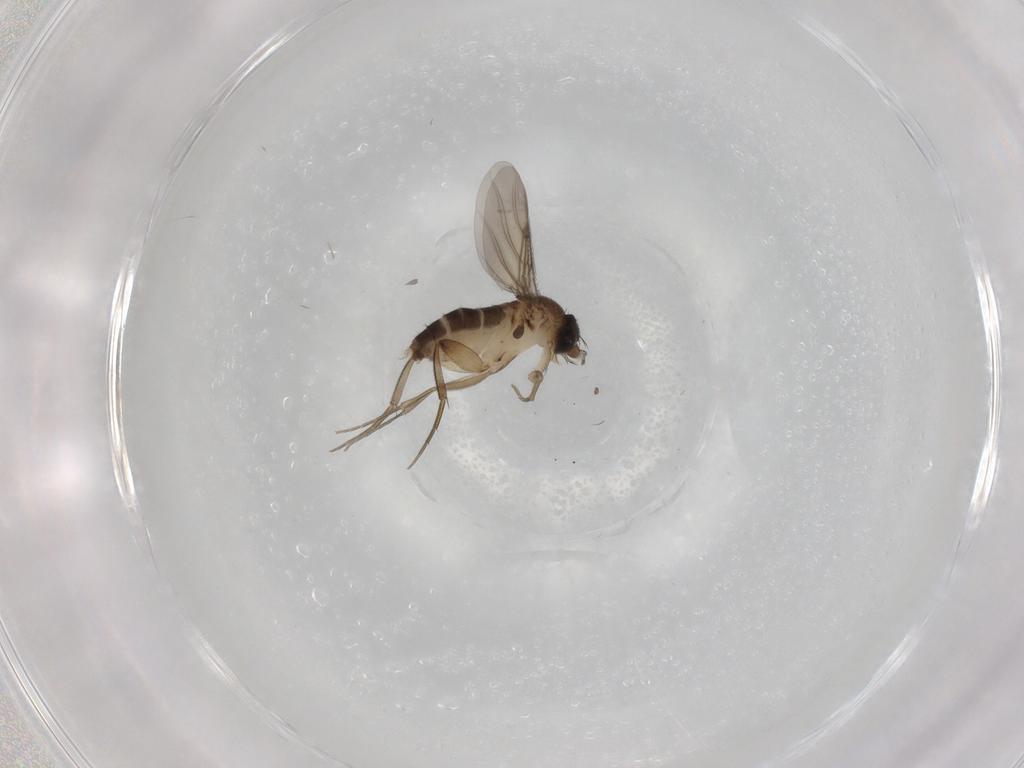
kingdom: Animalia
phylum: Arthropoda
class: Insecta
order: Diptera
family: Phoridae
